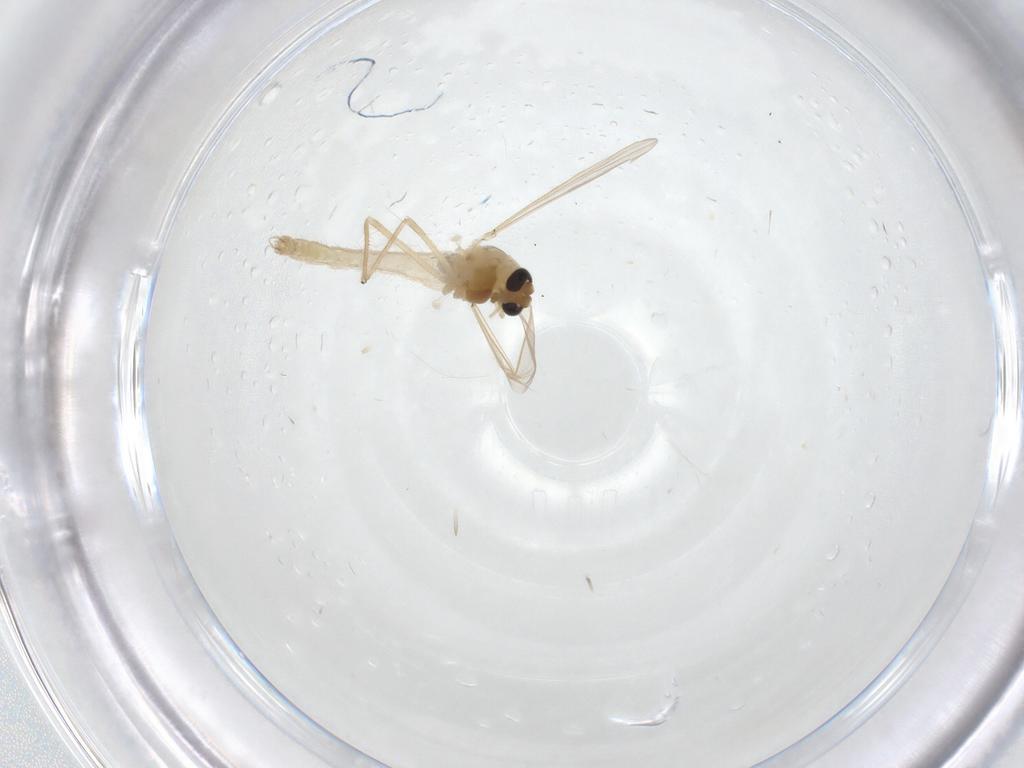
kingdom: Animalia
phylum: Arthropoda
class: Insecta
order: Diptera
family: Chironomidae
